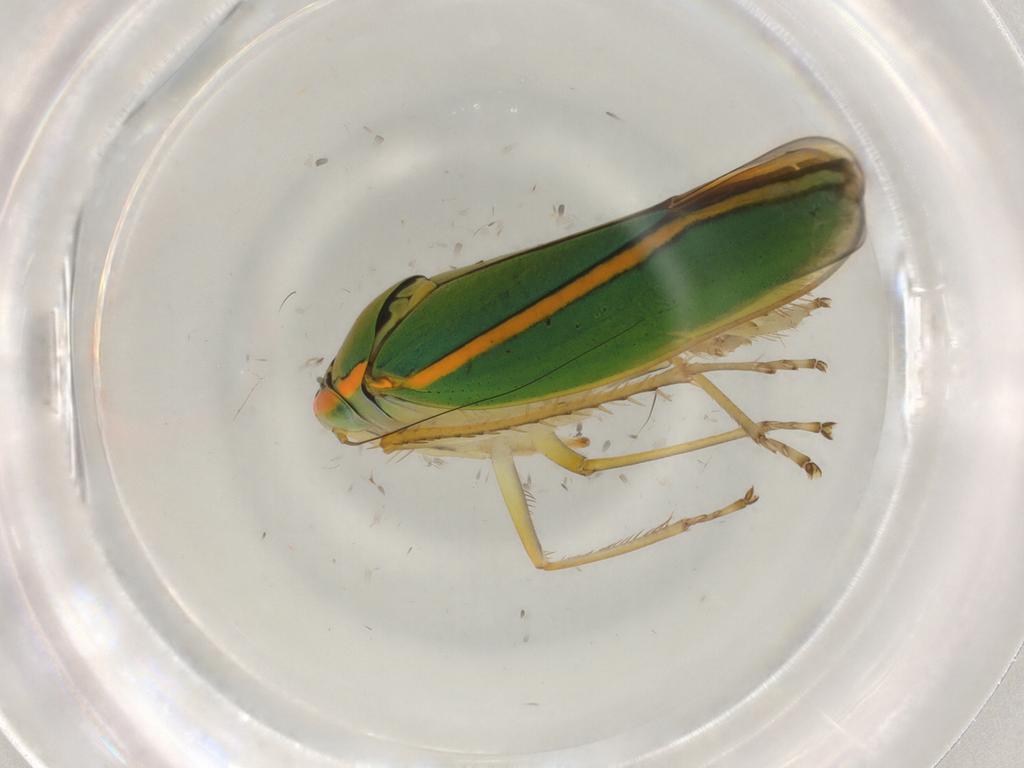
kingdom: Animalia
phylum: Arthropoda
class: Insecta
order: Hemiptera
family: Cicadellidae
